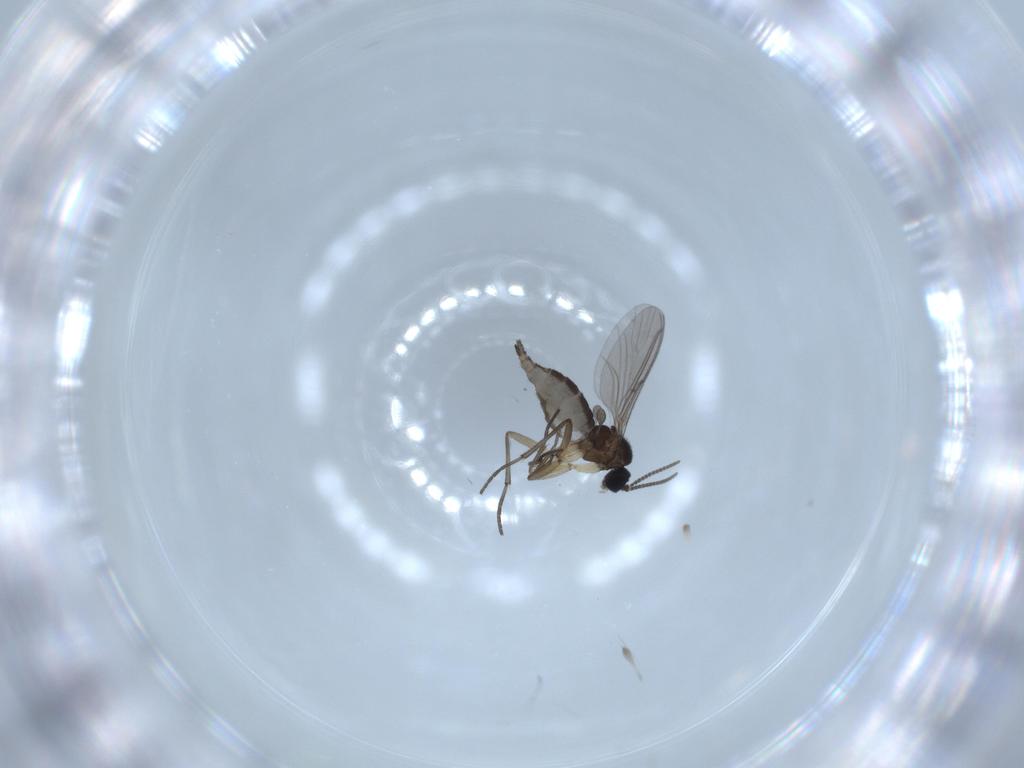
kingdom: Animalia
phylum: Arthropoda
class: Insecta
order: Diptera
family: Sciaridae
